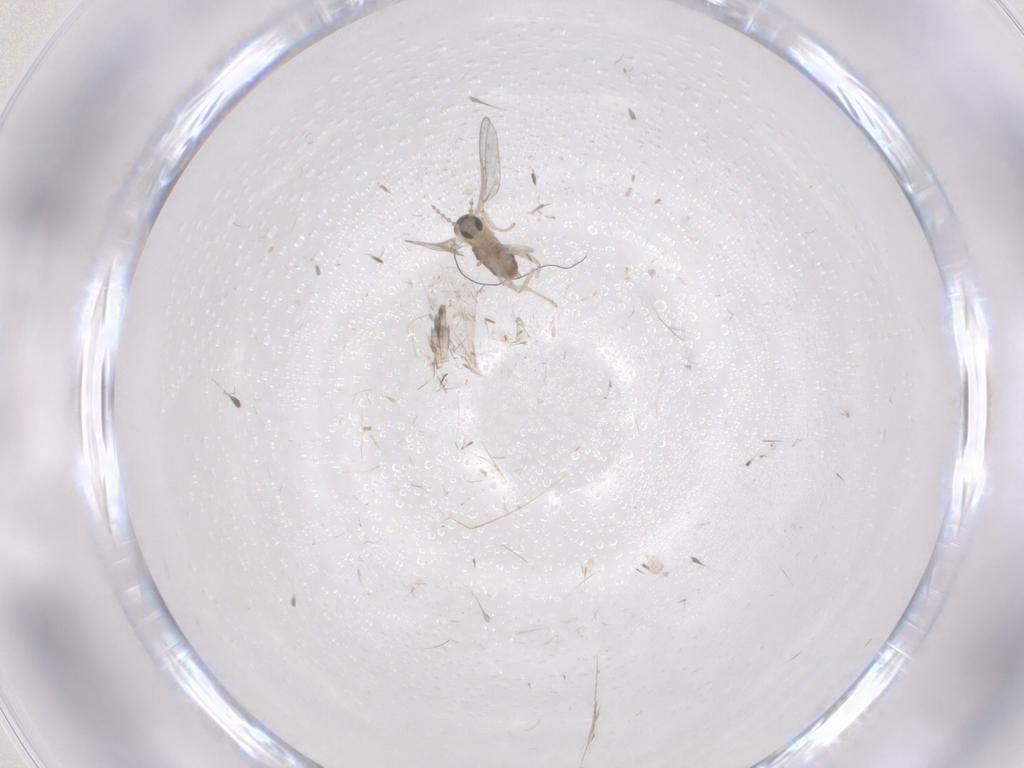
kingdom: Animalia
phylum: Arthropoda
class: Insecta
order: Diptera
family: Cecidomyiidae
